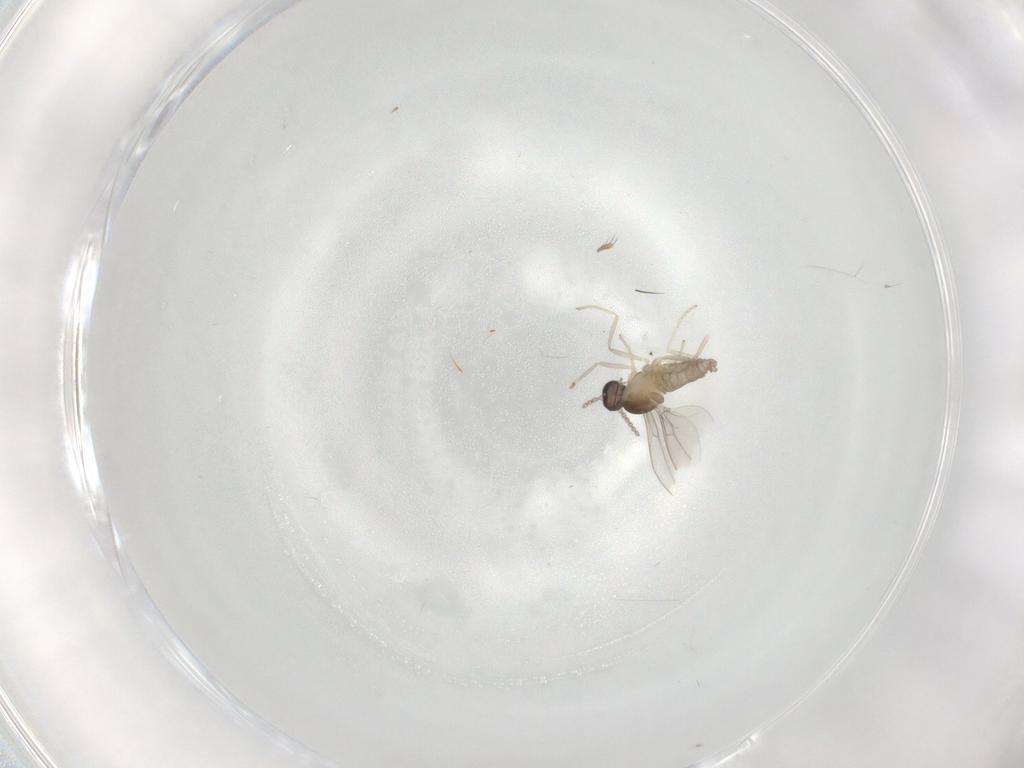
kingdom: Animalia
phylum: Arthropoda
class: Insecta
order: Diptera
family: Cecidomyiidae
